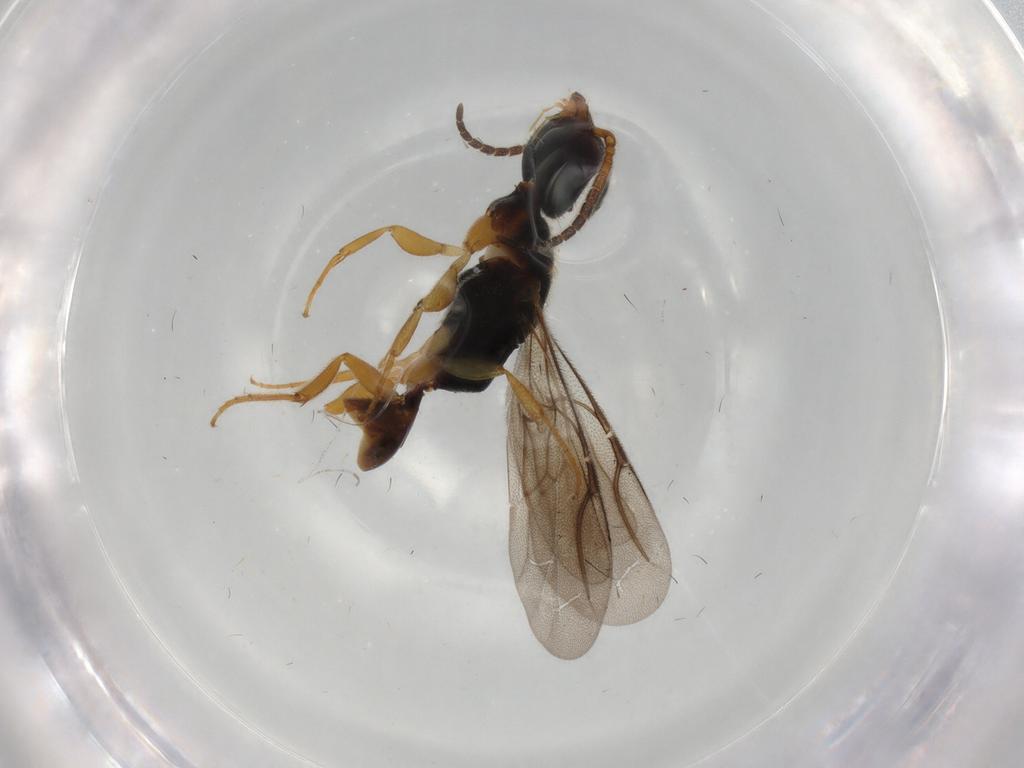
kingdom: Animalia
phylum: Arthropoda
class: Insecta
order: Hymenoptera
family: Bethylidae
